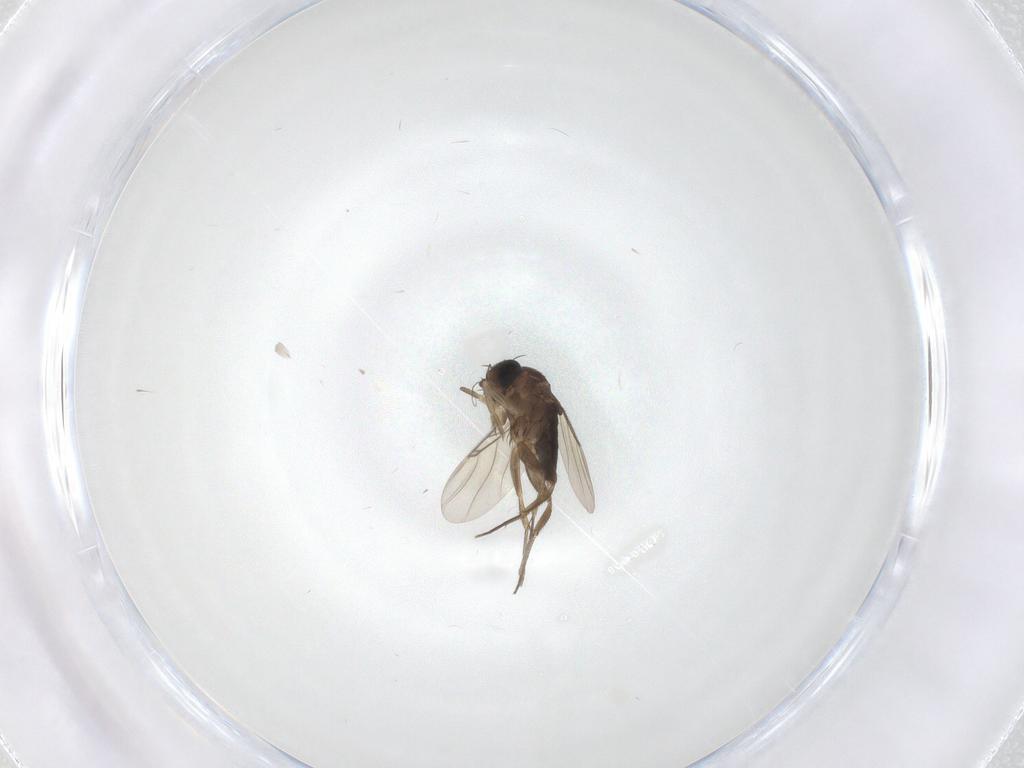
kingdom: Animalia
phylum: Arthropoda
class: Insecta
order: Diptera
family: Phoridae
